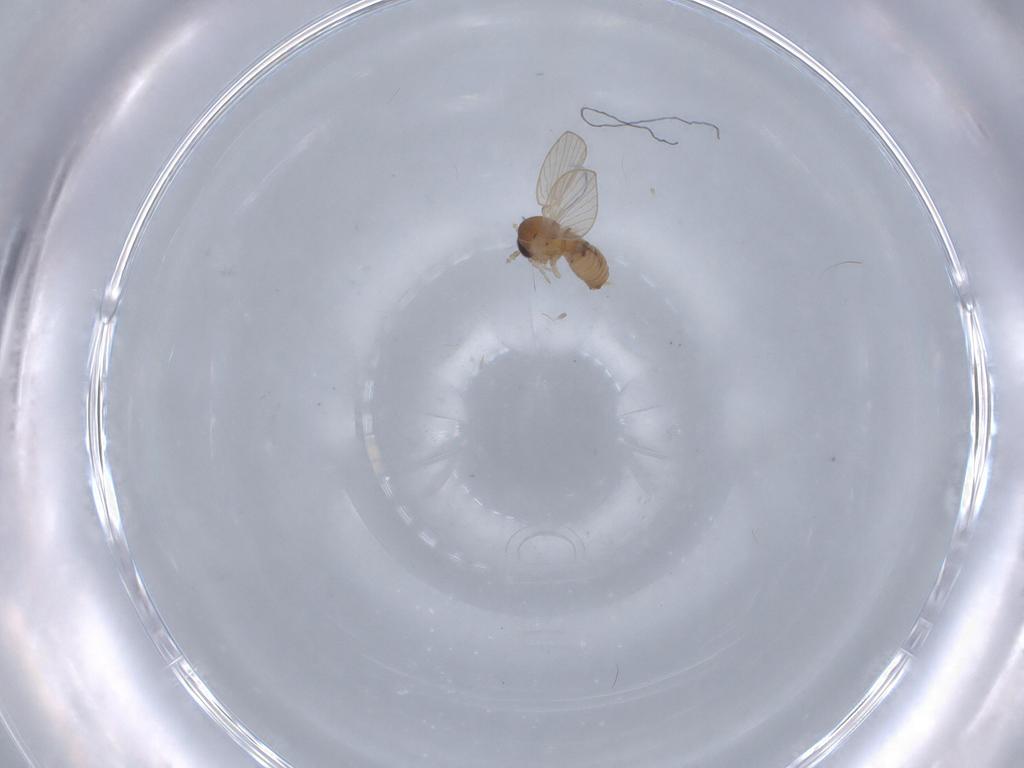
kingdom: Animalia
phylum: Arthropoda
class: Insecta
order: Diptera
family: Psychodidae
